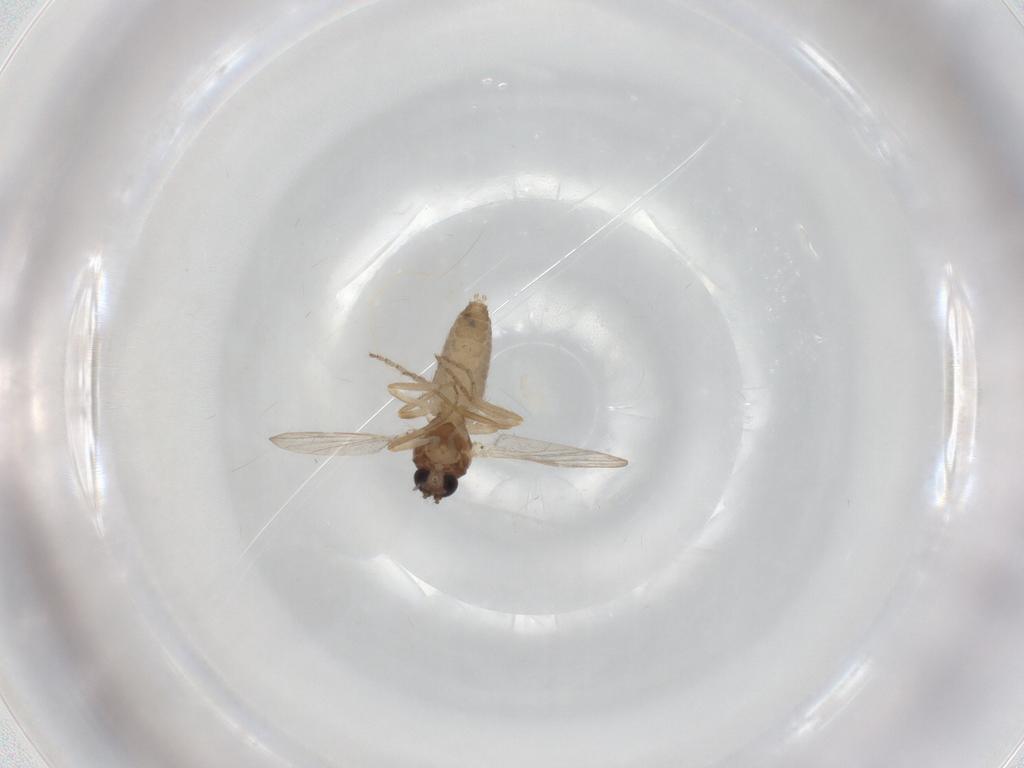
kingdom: Animalia
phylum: Arthropoda
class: Insecta
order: Diptera
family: Ceratopogonidae
